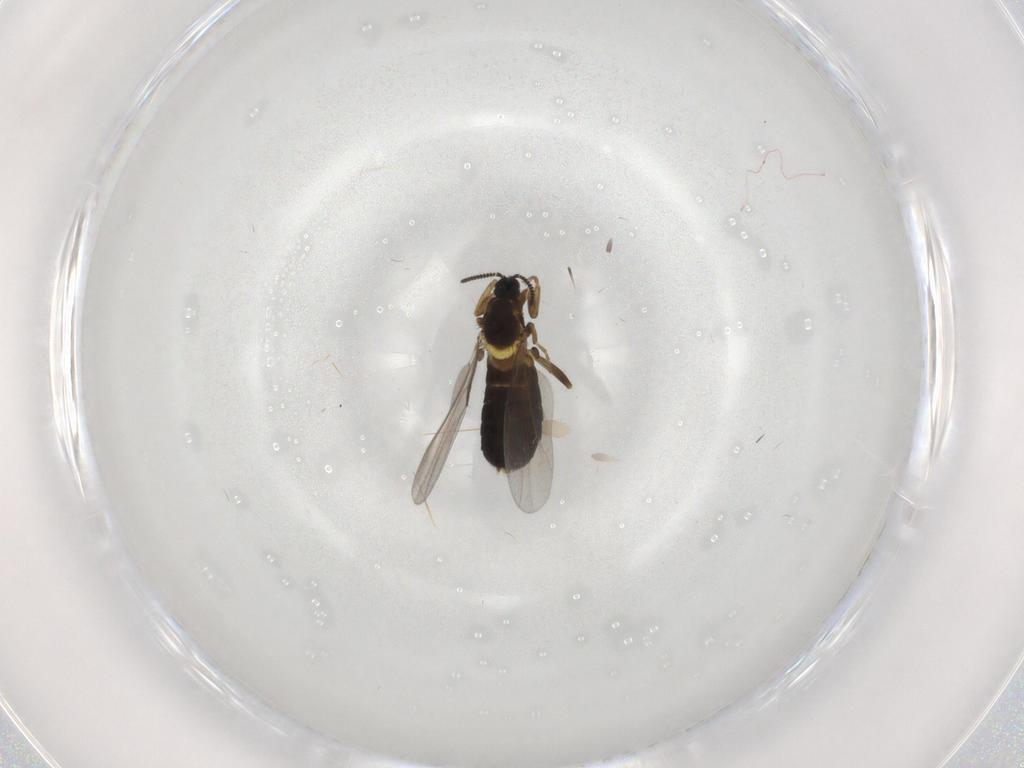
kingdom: Animalia
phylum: Arthropoda
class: Insecta
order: Diptera
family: Scatopsidae
